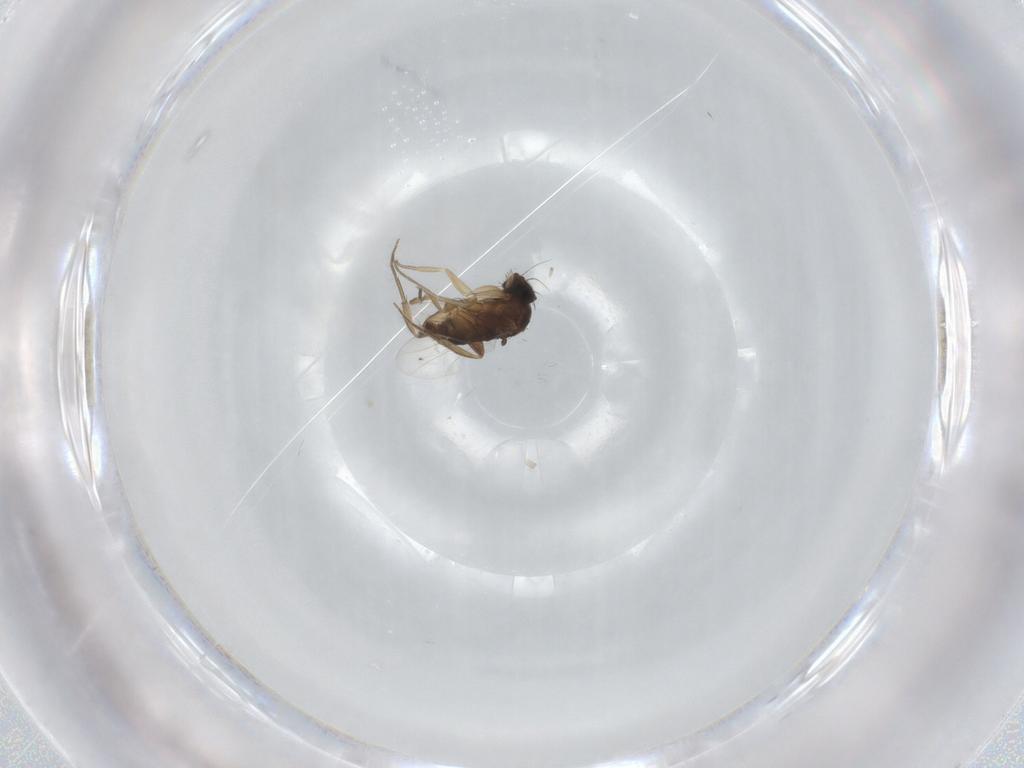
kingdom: Animalia
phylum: Arthropoda
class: Insecta
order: Diptera
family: Phoridae
